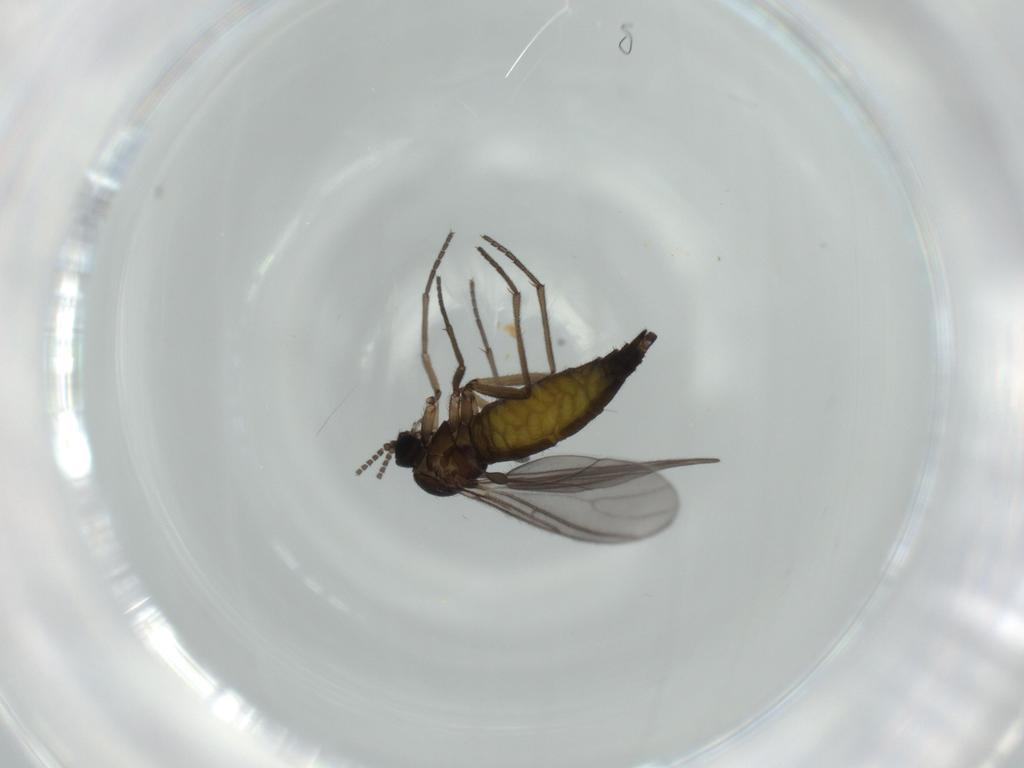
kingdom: Animalia
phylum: Arthropoda
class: Insecta
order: Diptera
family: Sciaridae
